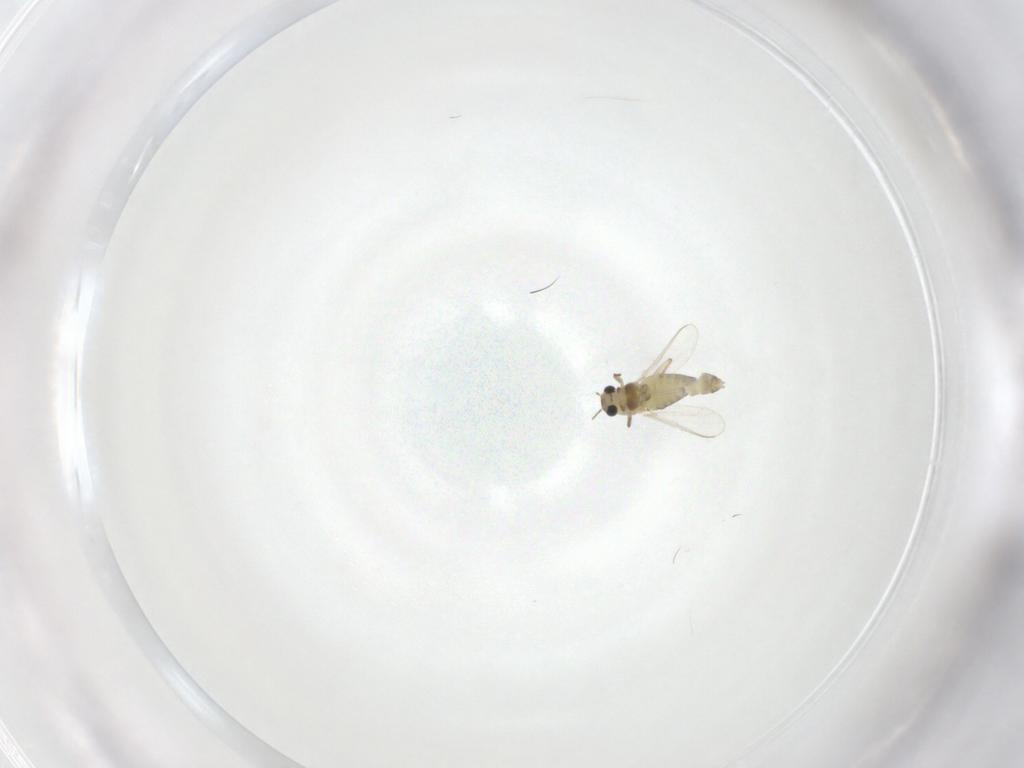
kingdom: Animalia
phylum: Arthropoda
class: Insecta
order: Diptera
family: Chironomidae
